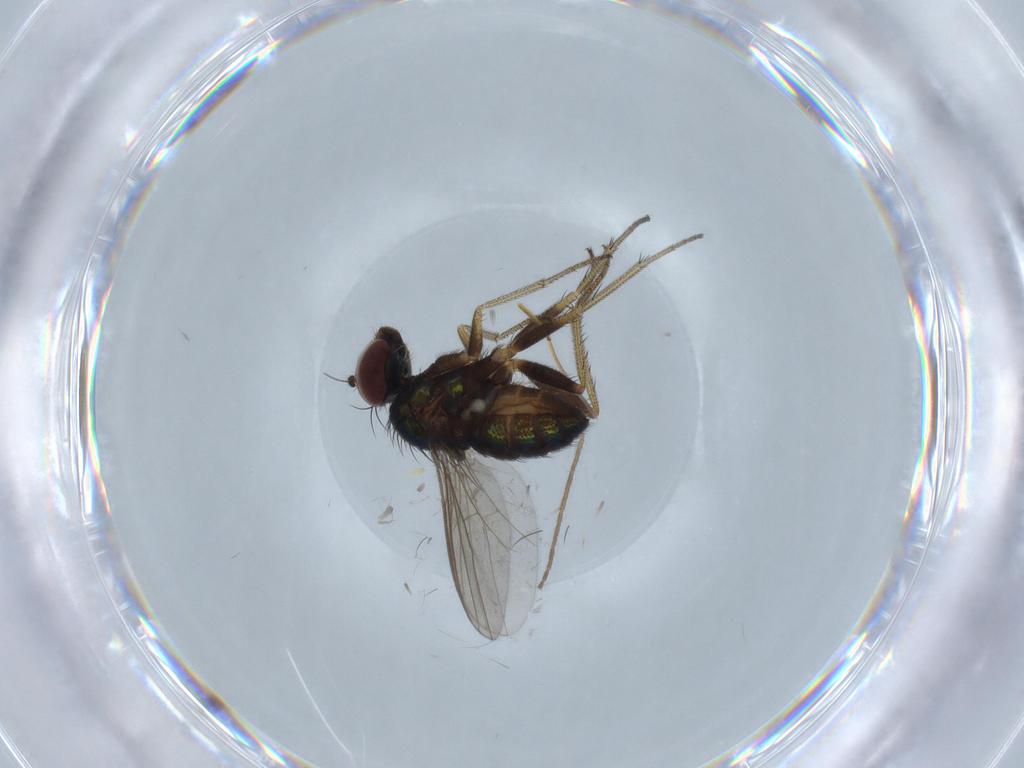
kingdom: Animalia
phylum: Arthropoda
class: Insecta
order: Diptera
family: Dolichopodidae
